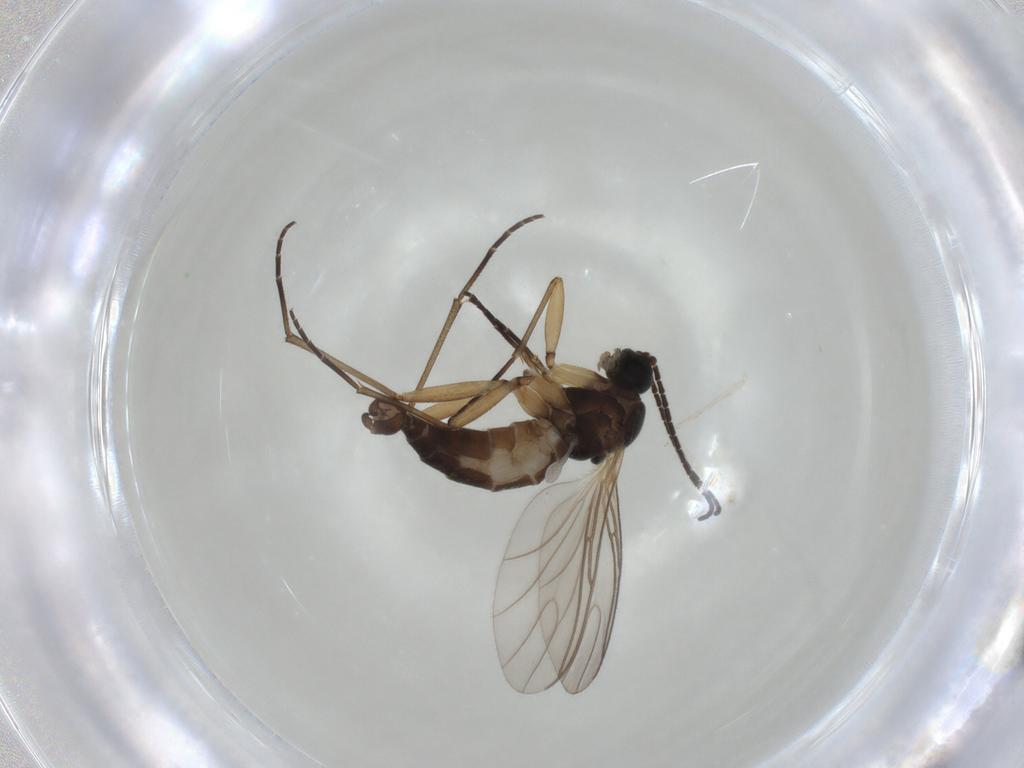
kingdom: Animalia
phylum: Arthropoda
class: Insecta
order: Diptera
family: Sciaridae
